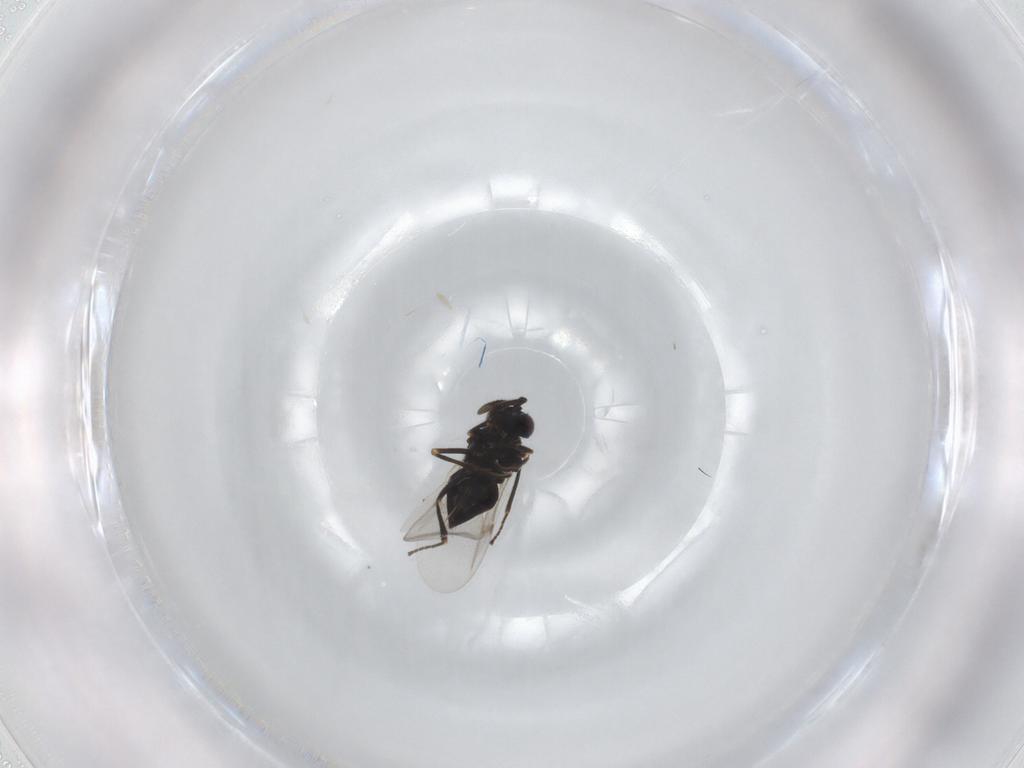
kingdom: Animalia
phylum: Arthropoda
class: Insecta
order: Hymenoptera
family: Encyrtidae
